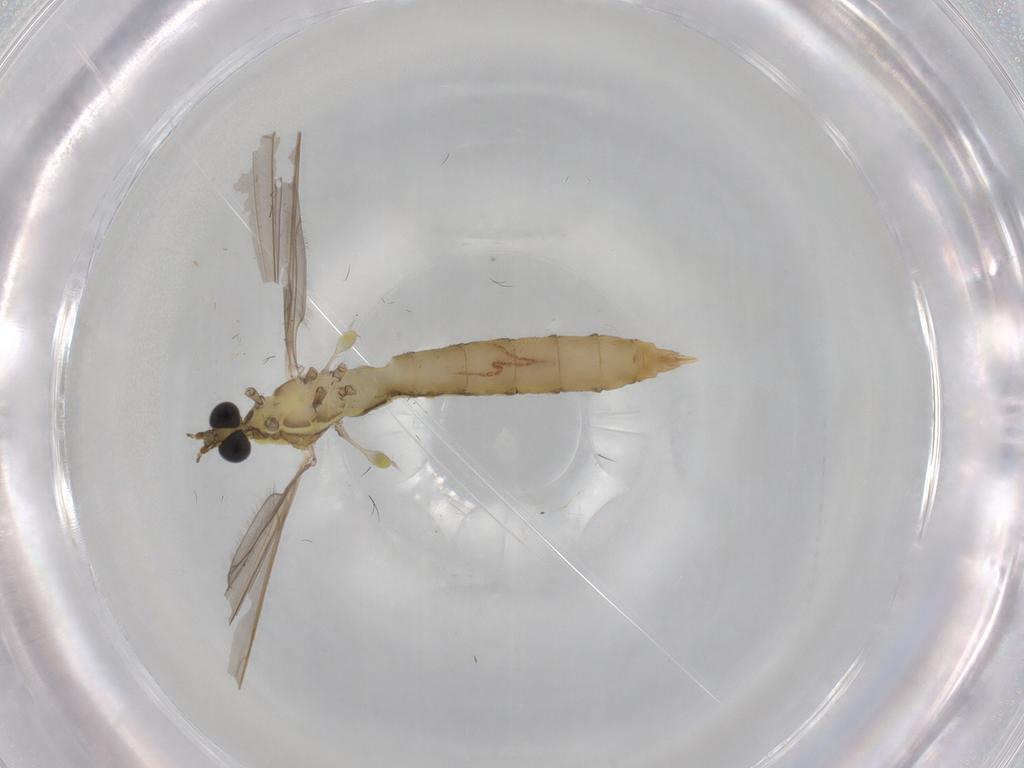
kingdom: Animalia
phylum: Arthropoda
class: Insecta
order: Diptera
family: Limoniidae
